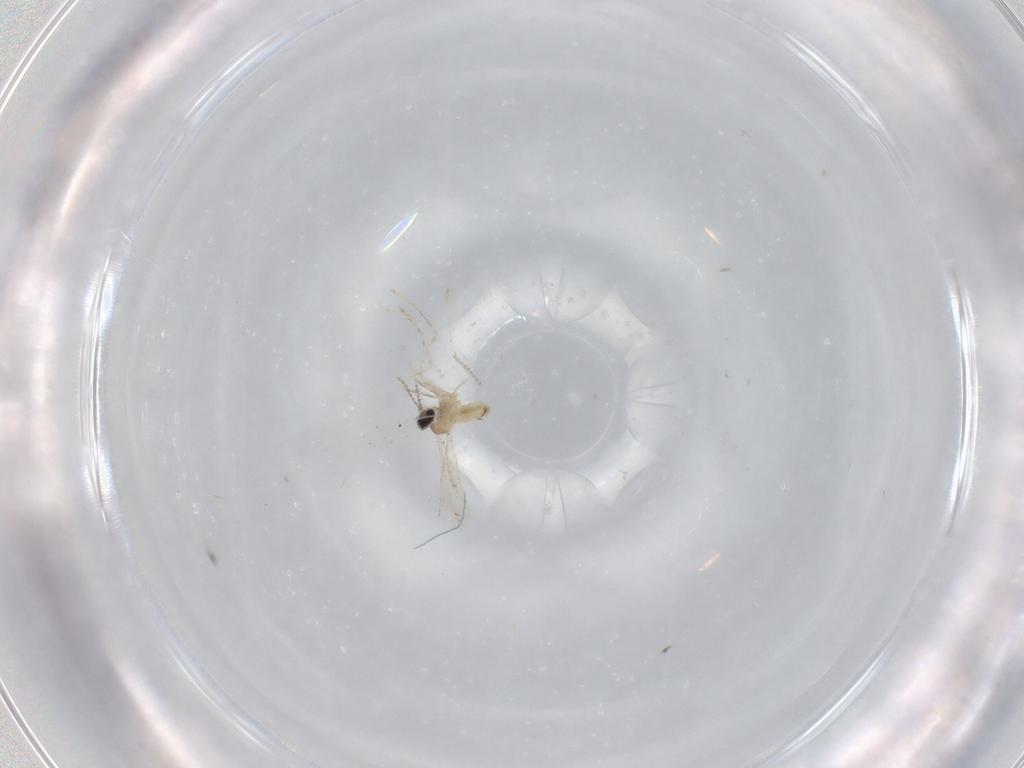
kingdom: Animalia
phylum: Arthropoda
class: Insecta
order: Diptera
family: Cecidomyiidae
